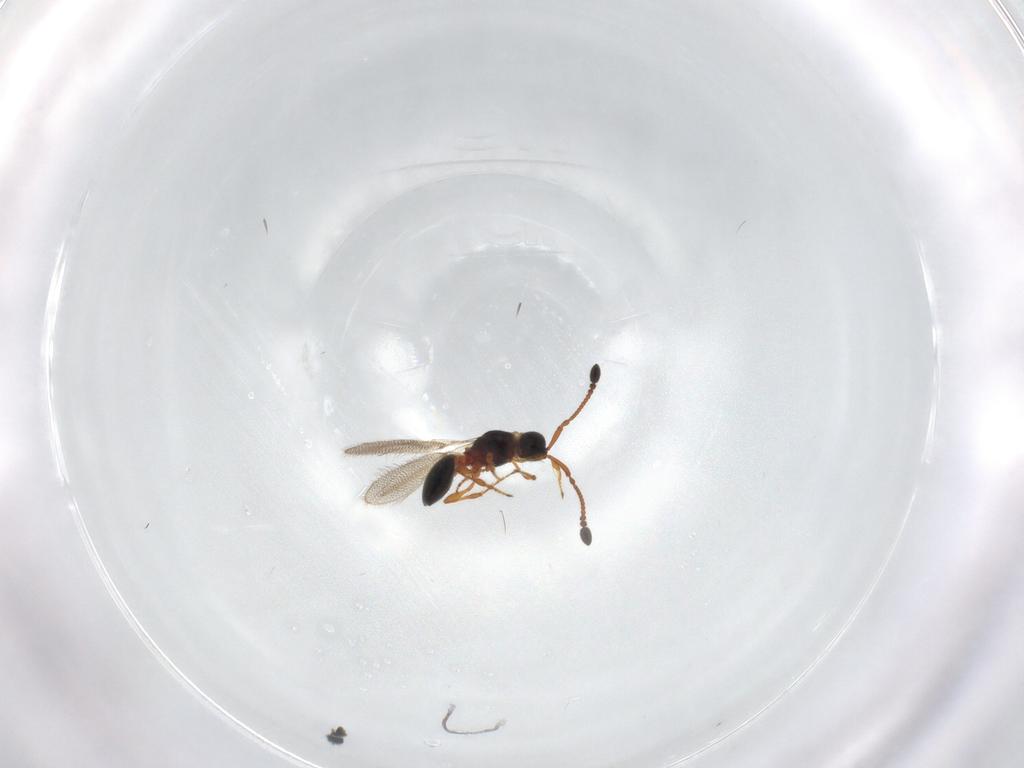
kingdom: Animalia
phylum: Arthropoda
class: Insecta
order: Hymenoptera
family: Diapriidae
